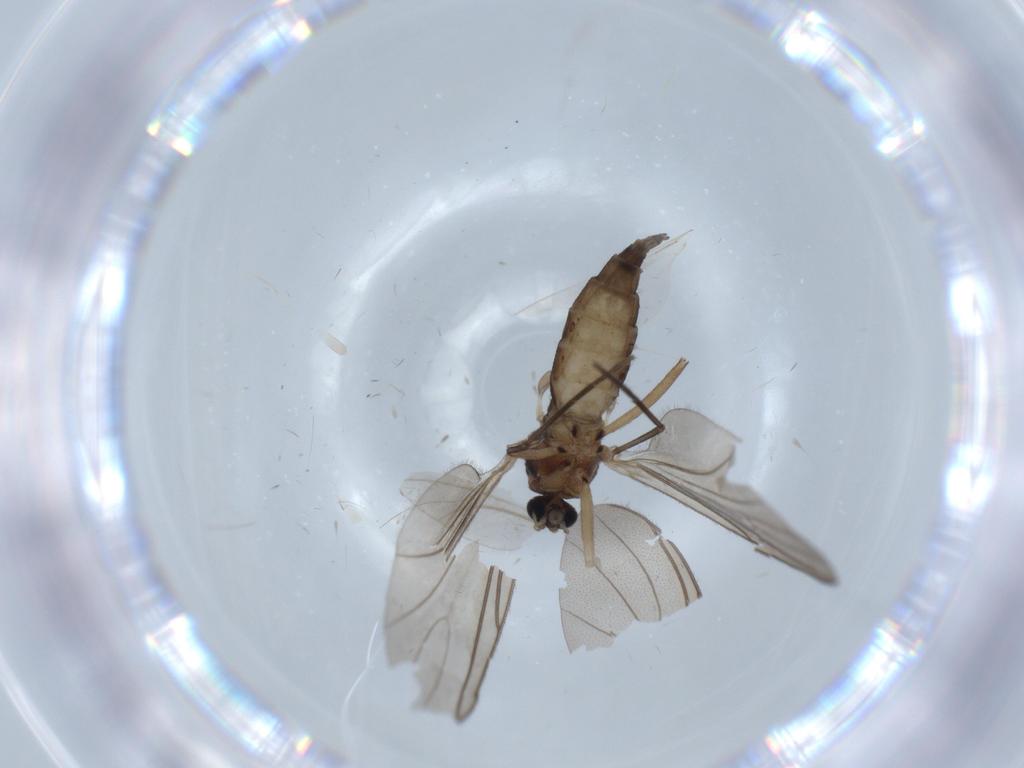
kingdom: Animalia
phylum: Arthropoda
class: Insecta
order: Diptera
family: Sciaridae
